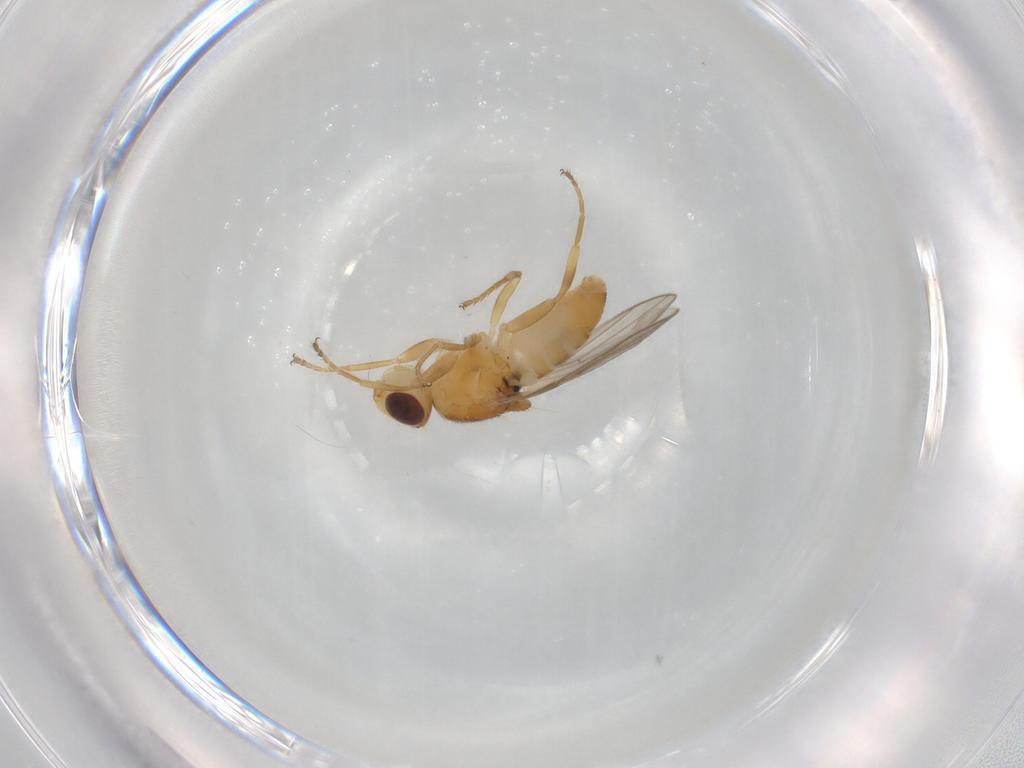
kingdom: Animalia
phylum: Arthropoda
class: Insecta
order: Diptera
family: Chloropidae
